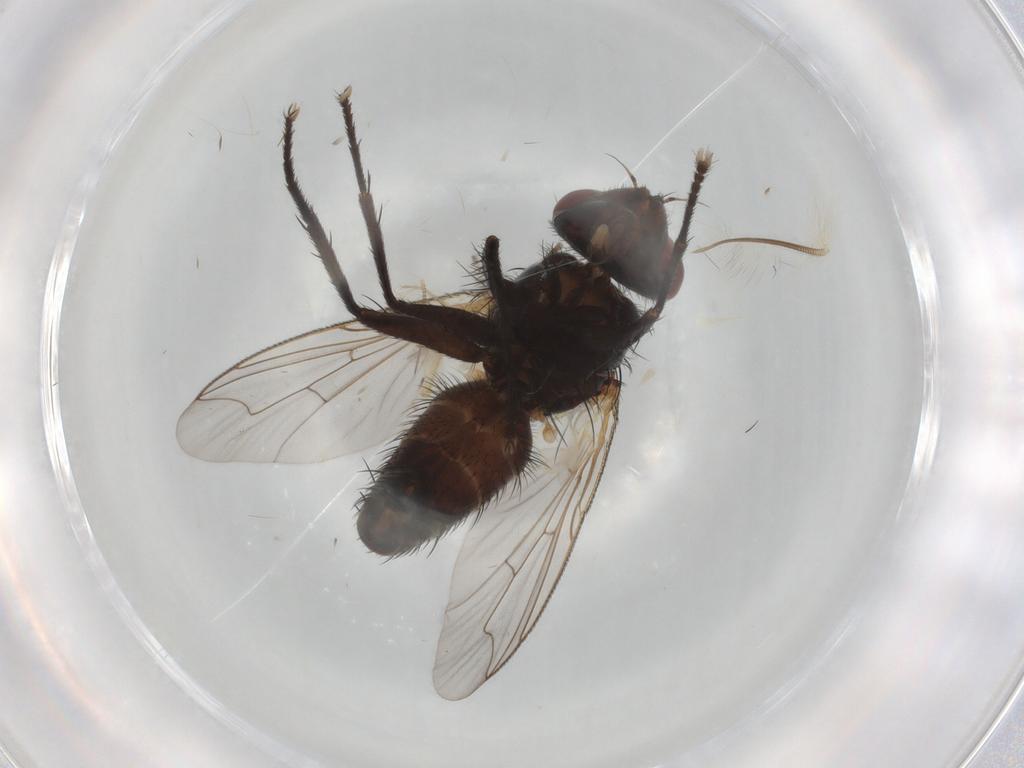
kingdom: Animalia
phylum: Arthropoda
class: Insecta
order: Diptera
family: Sarcophagidae
